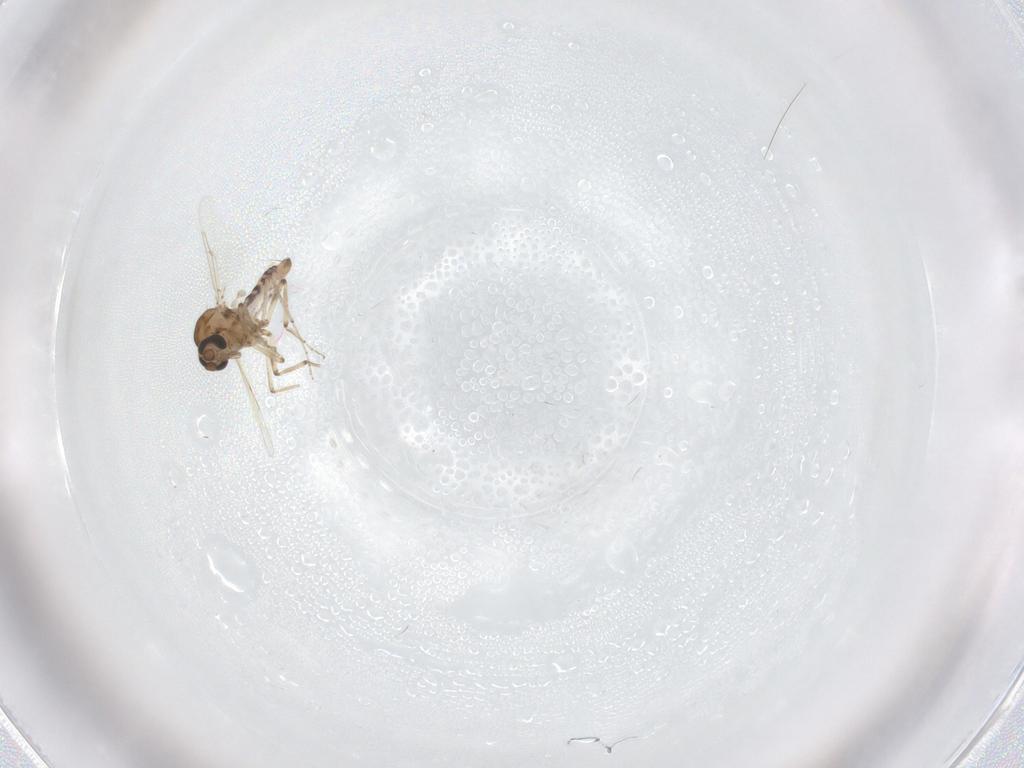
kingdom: Animalia
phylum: Arthropoda
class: Insecta
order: Diptera
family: Ceratopogonidae
